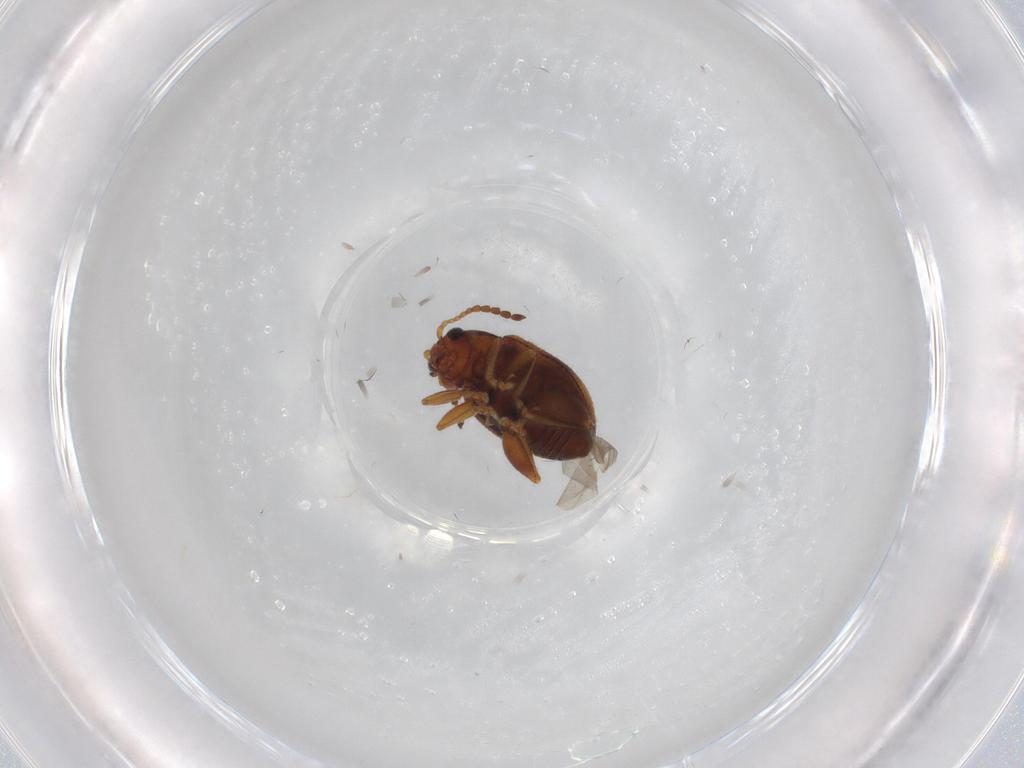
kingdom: Animalia
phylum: Arthropoda
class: Insecta
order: Coleoptera
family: Chrysomelidae
